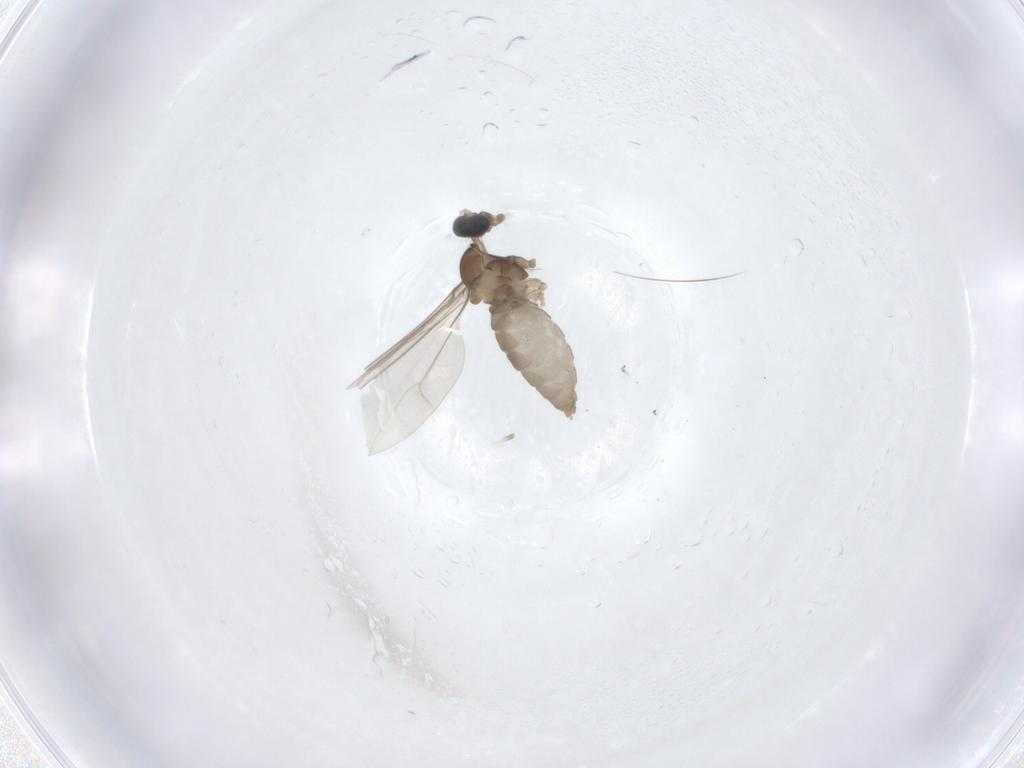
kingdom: Animalia
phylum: Arthropoda
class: Insecta
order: Diptera
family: Cecidomyiidae
